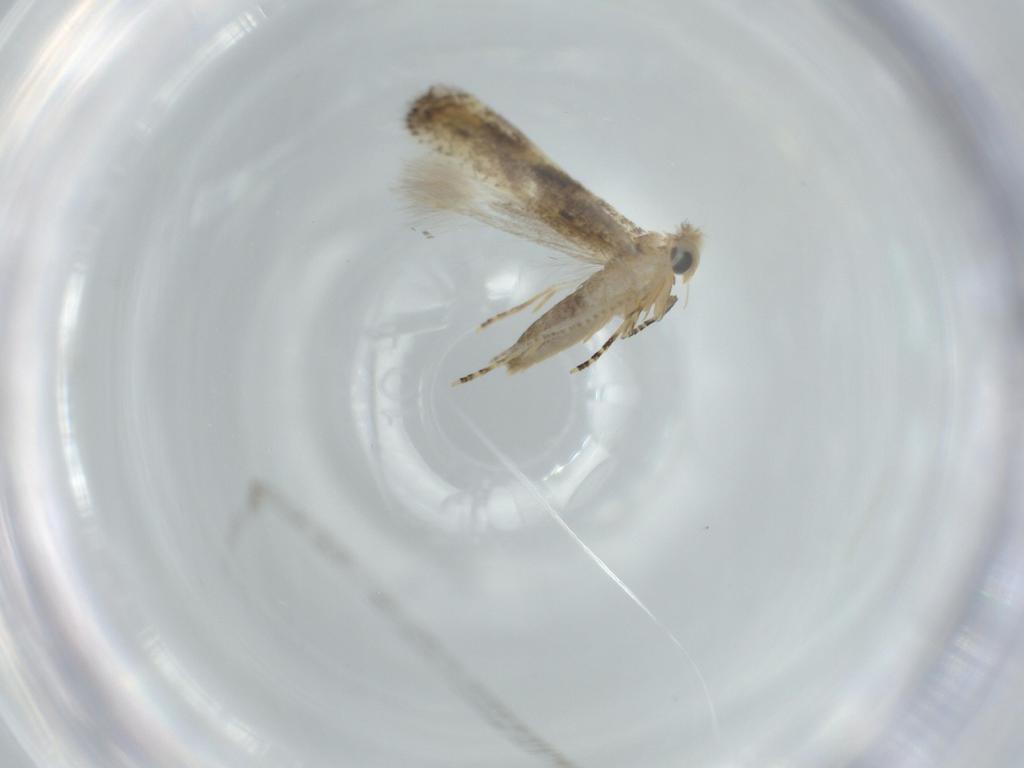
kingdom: Animalia
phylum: Arthropoda
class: Insecta
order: Lepidoptera
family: Bucculatricidae
